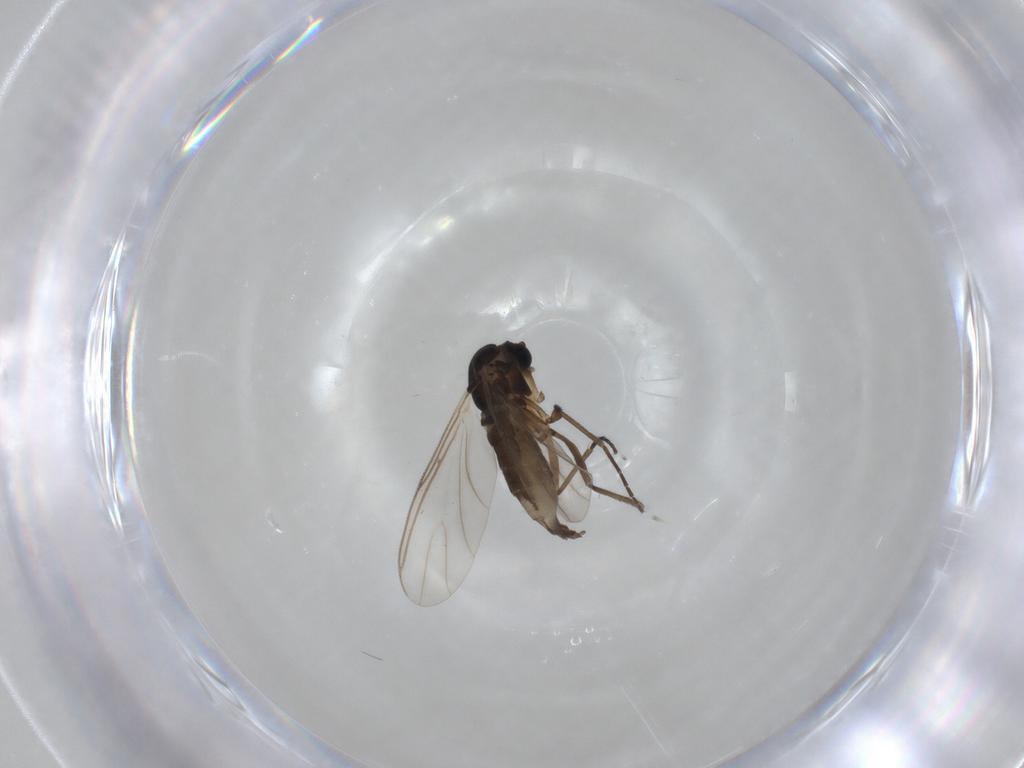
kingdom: Animalia
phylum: Arthropoda
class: Insecta
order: Diptera
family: Empididae
